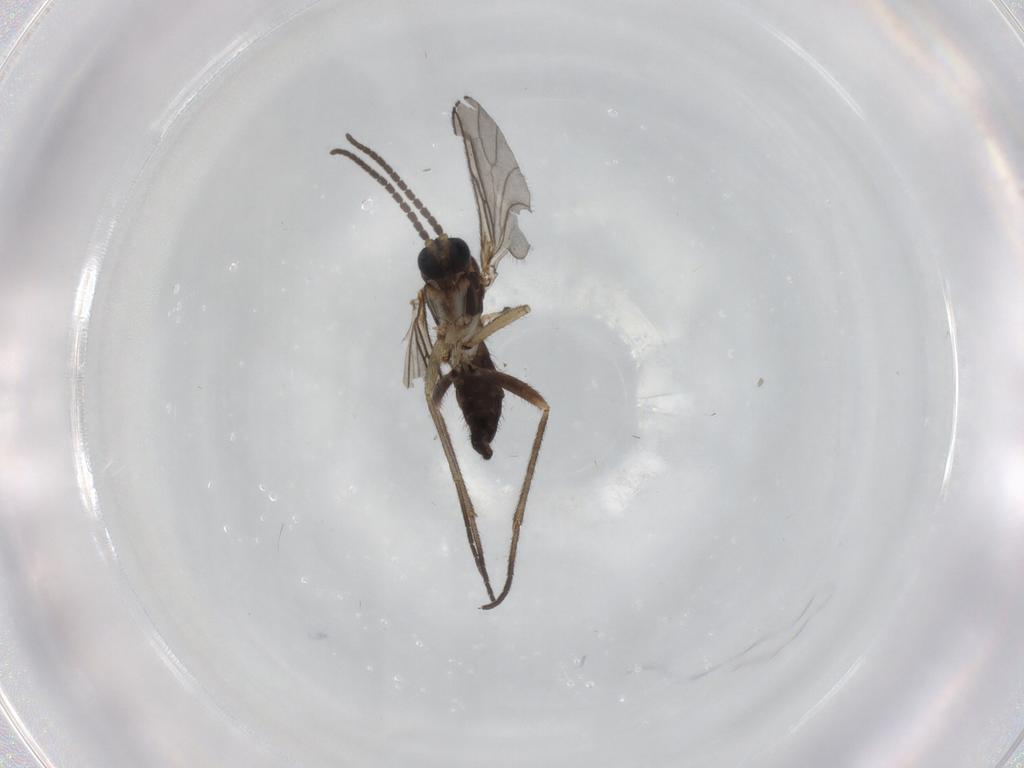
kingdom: Animalia
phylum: Arthropoda
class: Insecta
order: Diptera
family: Sciaridae
